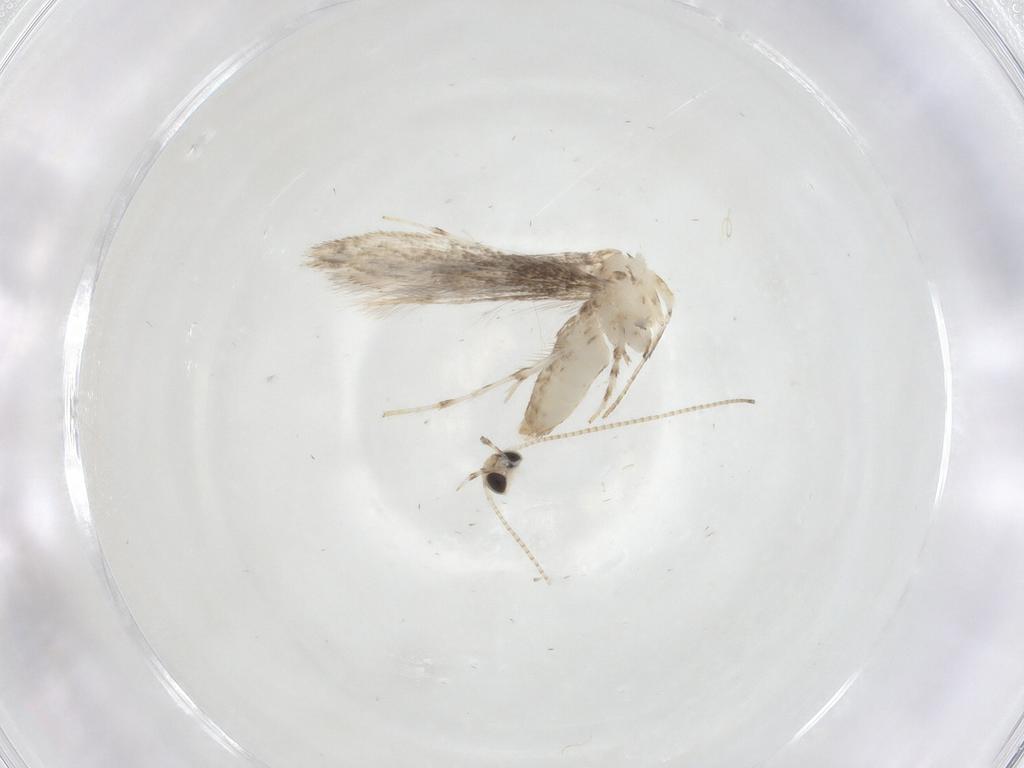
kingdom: Animalia
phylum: Arthropoda
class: Insecta
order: Lepidoptera
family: Gracillariidae
